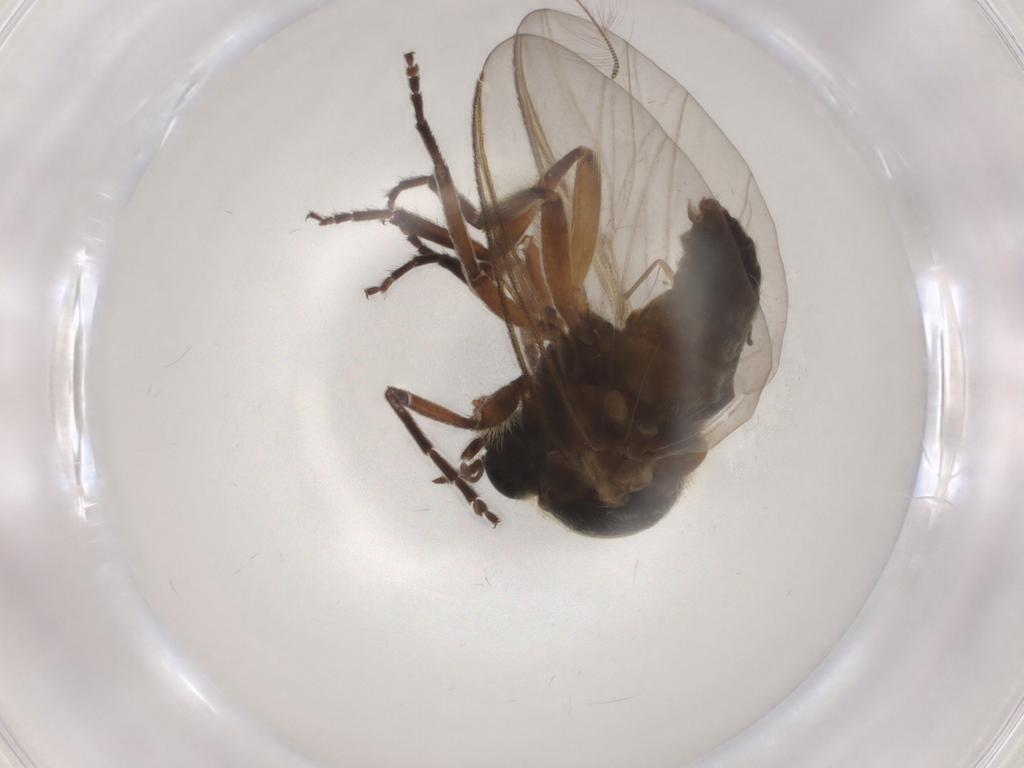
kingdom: Animalia
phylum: Arthropoda
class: Insecta
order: Diptera
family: Simuliidae
